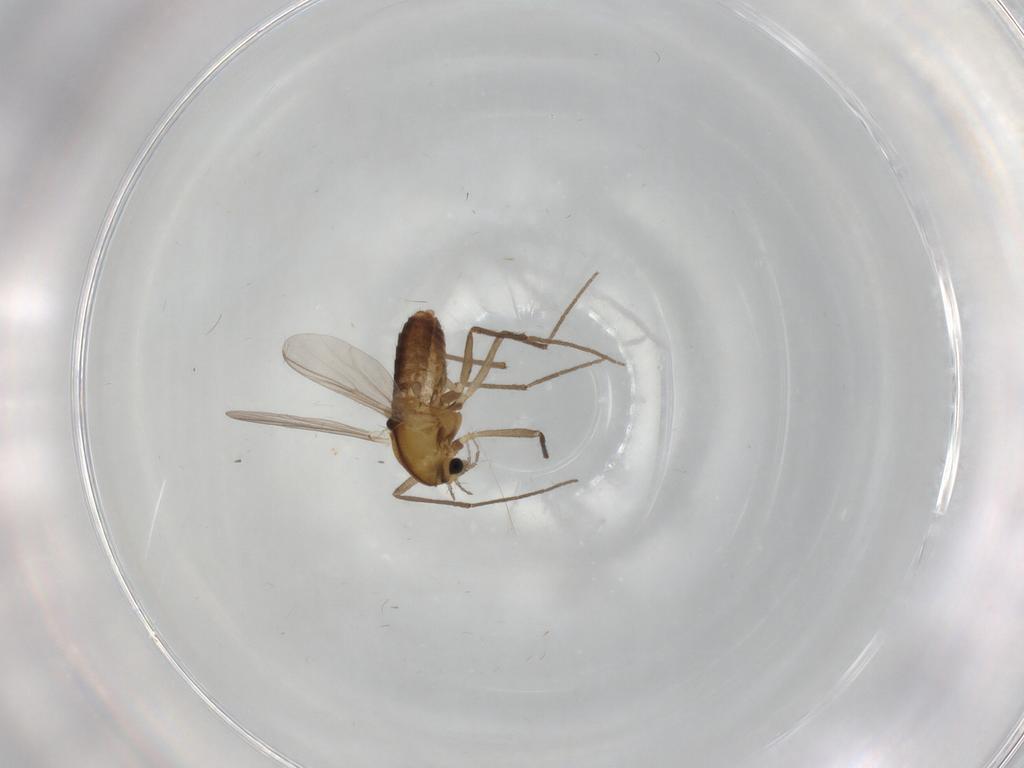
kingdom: Animalia
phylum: Arthropoda
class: Insecta
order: Diptera
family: Chironomidae
